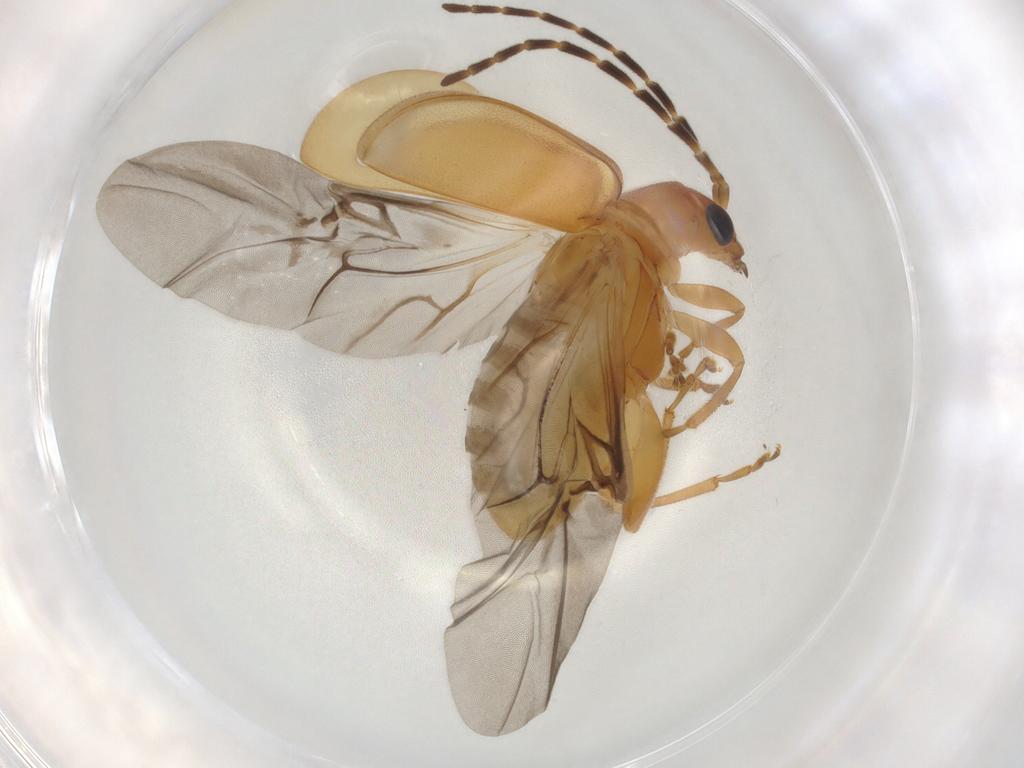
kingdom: Animalia
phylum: Arthropoda
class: Insecta
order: Coleoptera
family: Chrysomelidae
